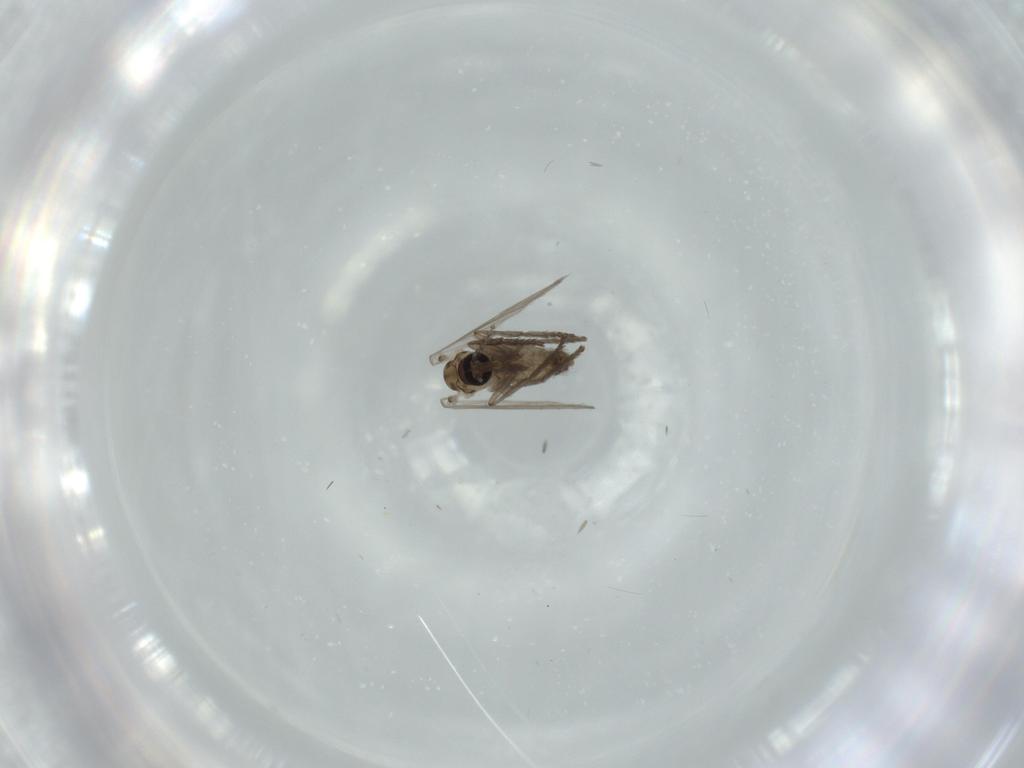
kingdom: Animalia
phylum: Arthropoda
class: Insecta
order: Diptera
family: Psychodidae
